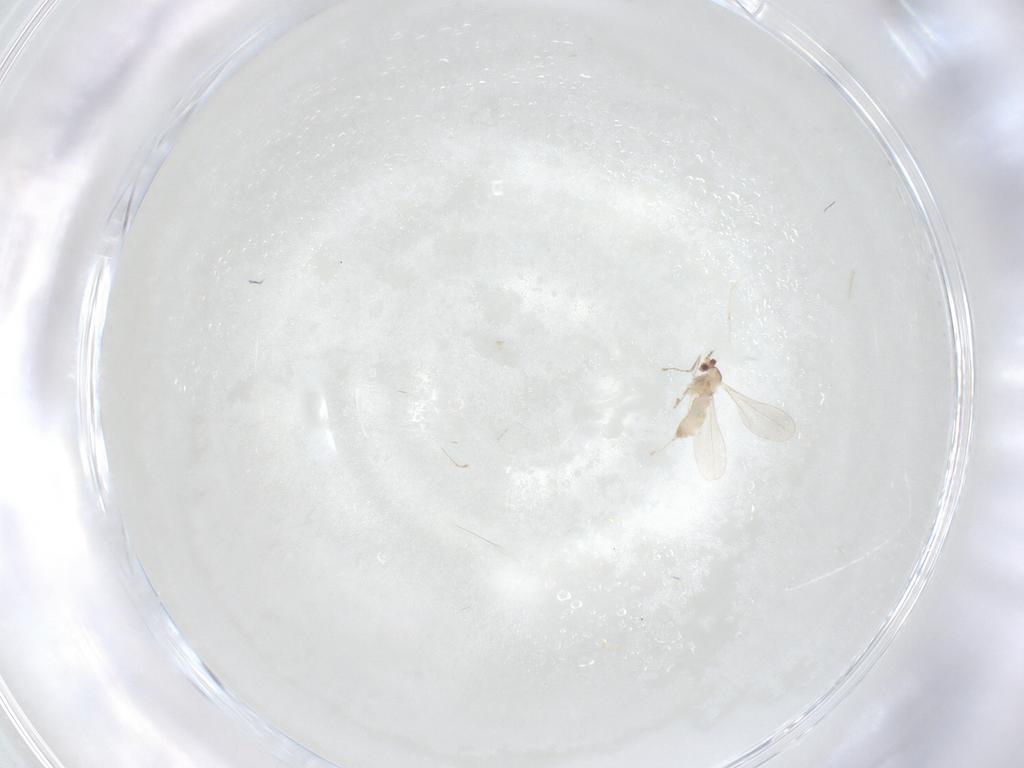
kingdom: Animalia
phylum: Arthropoda
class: Insecta
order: Diptera
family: Cecidomyiidae
